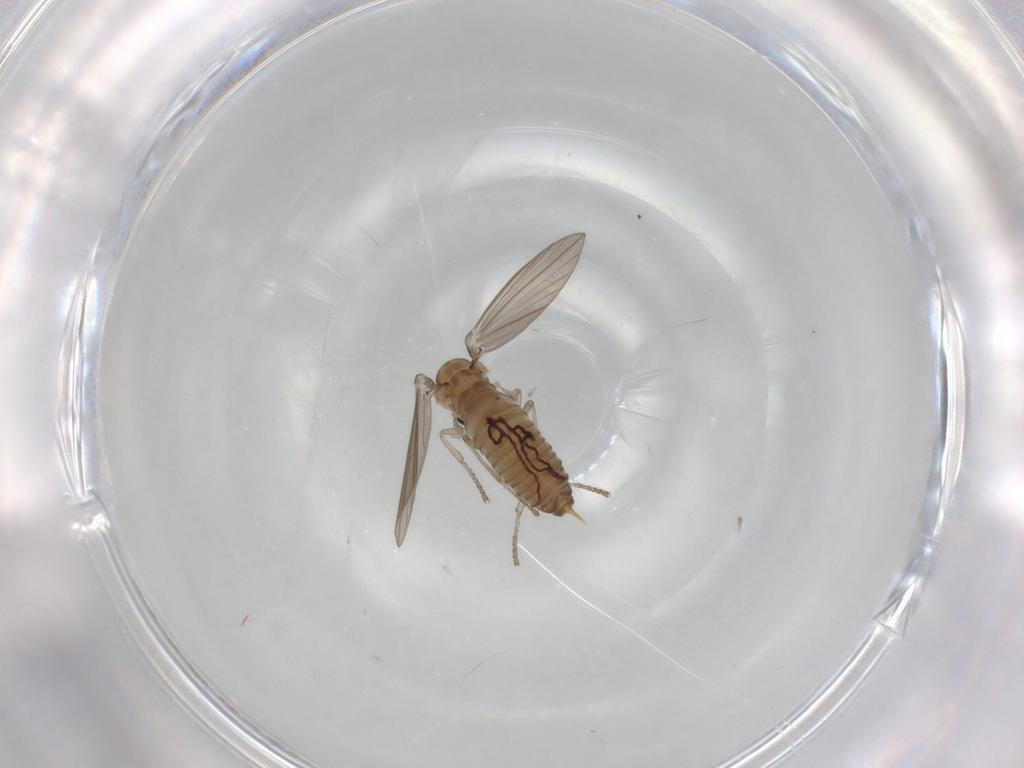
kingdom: Animalia
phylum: Arthropoda
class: Insecta
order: Diptera
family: Psychodidae
